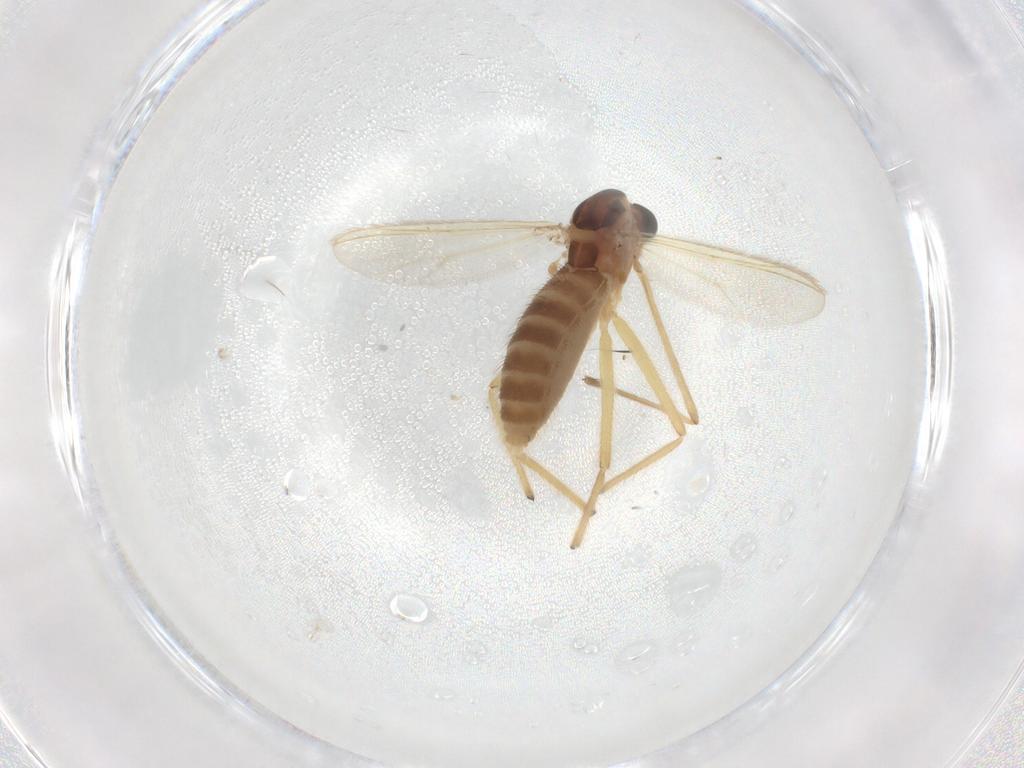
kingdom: Animalia
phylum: Arthropoda
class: Insecta
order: Diptera
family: Chironomidae
